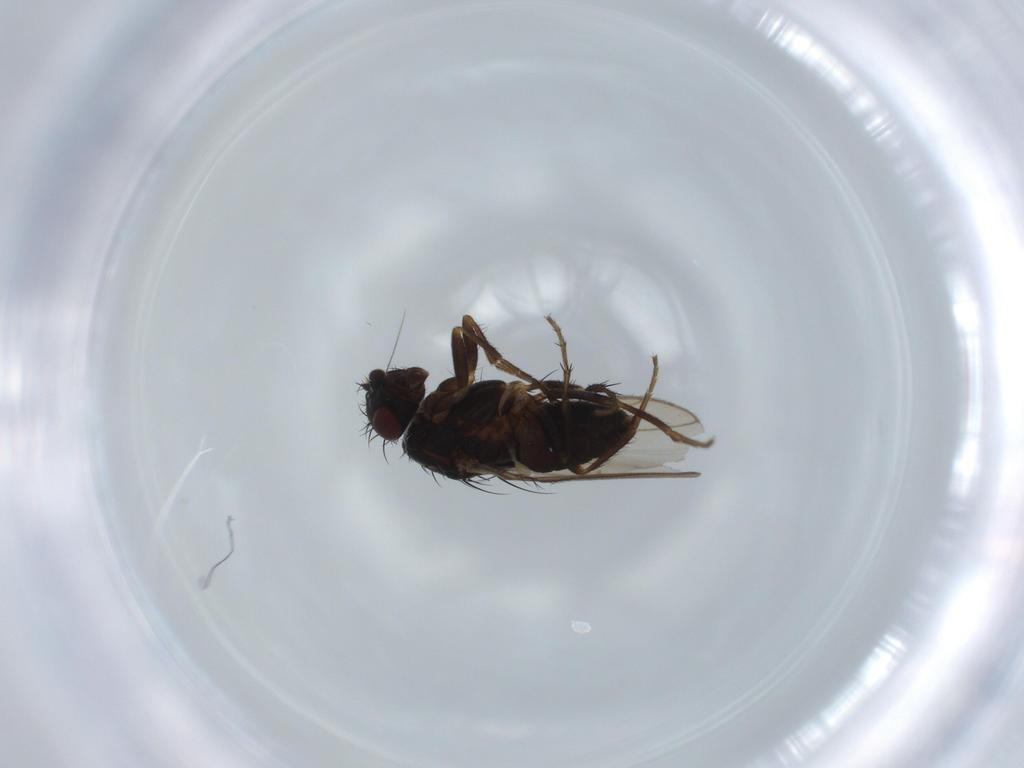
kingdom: Animalia
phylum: Arthropoda
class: Insecta
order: Diptera
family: Sphaeroceridae
